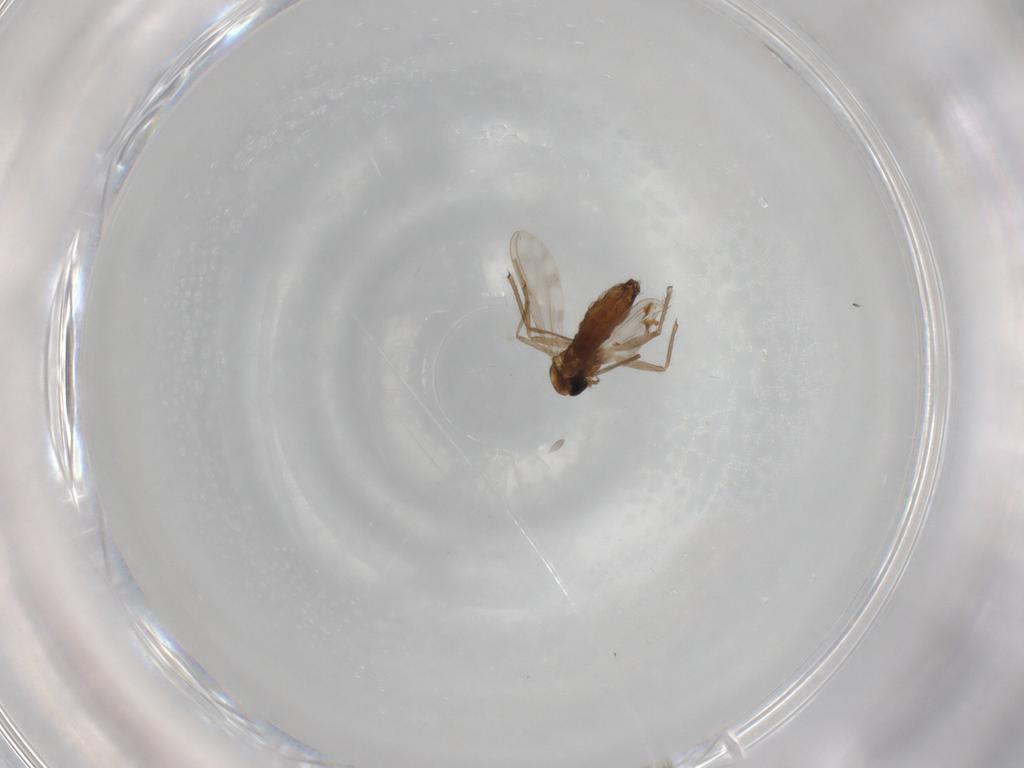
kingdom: Animalia
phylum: Arthropoda
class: Insecta
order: Diptera
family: Chironomidae
